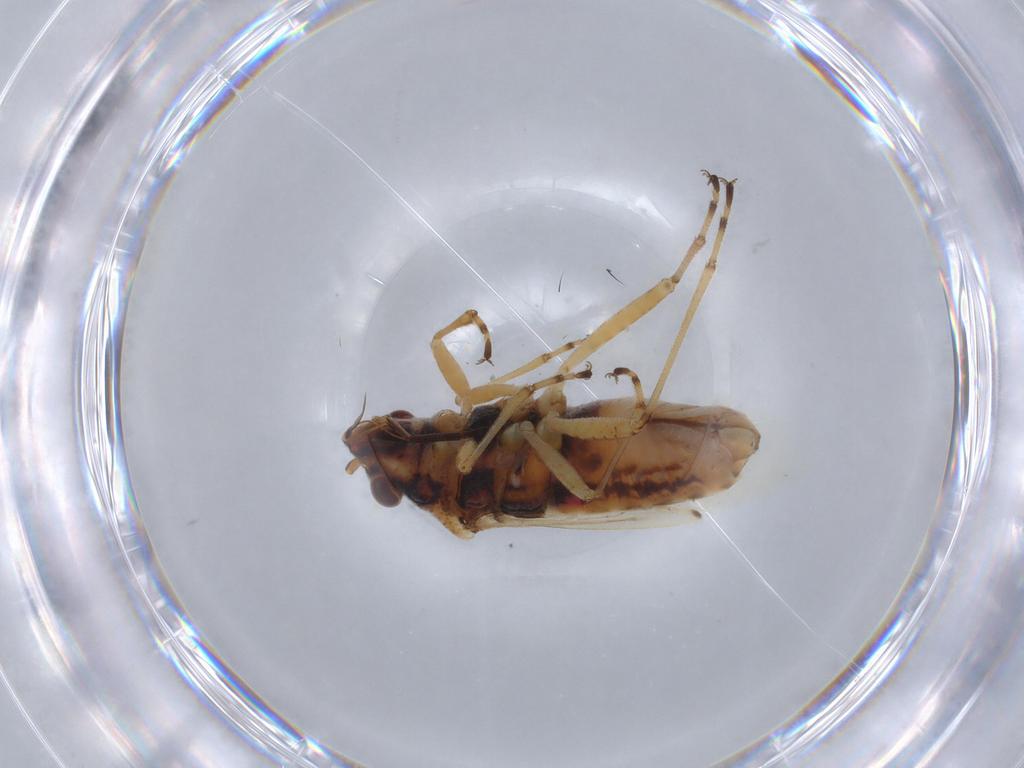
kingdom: Animalia
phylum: Arthropoda
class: Insecta
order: Hemiptera
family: Lygaeidae
